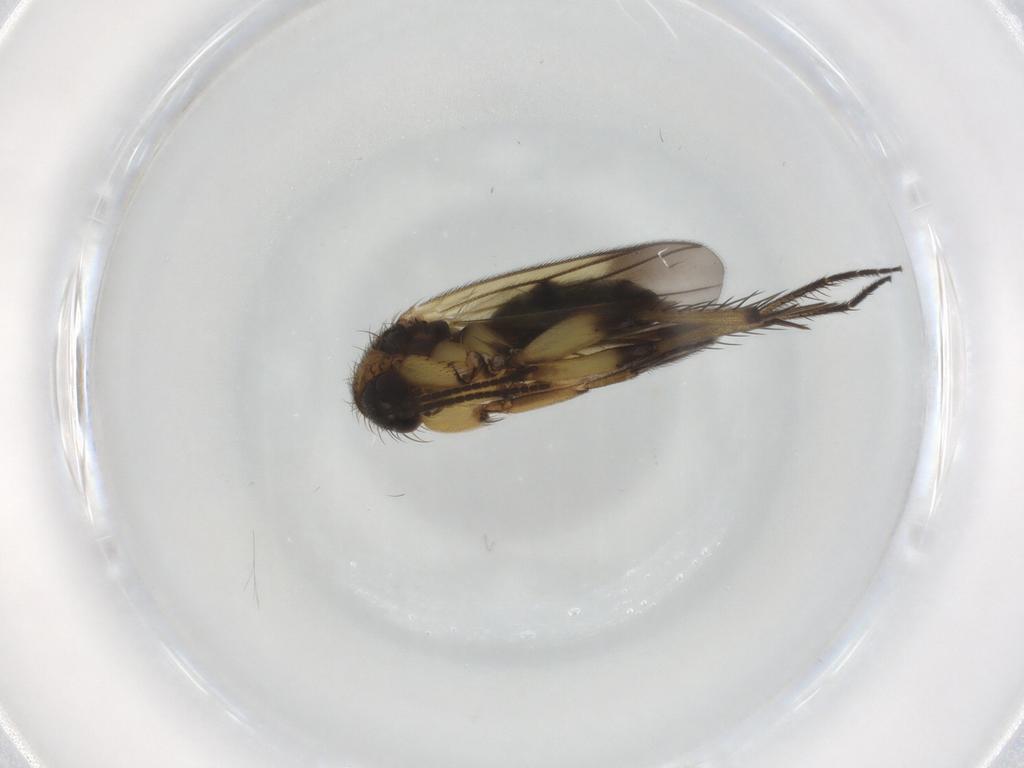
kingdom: Animalia
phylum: Arthropoda
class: Insecta
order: Diptera
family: Mycetophilidae
